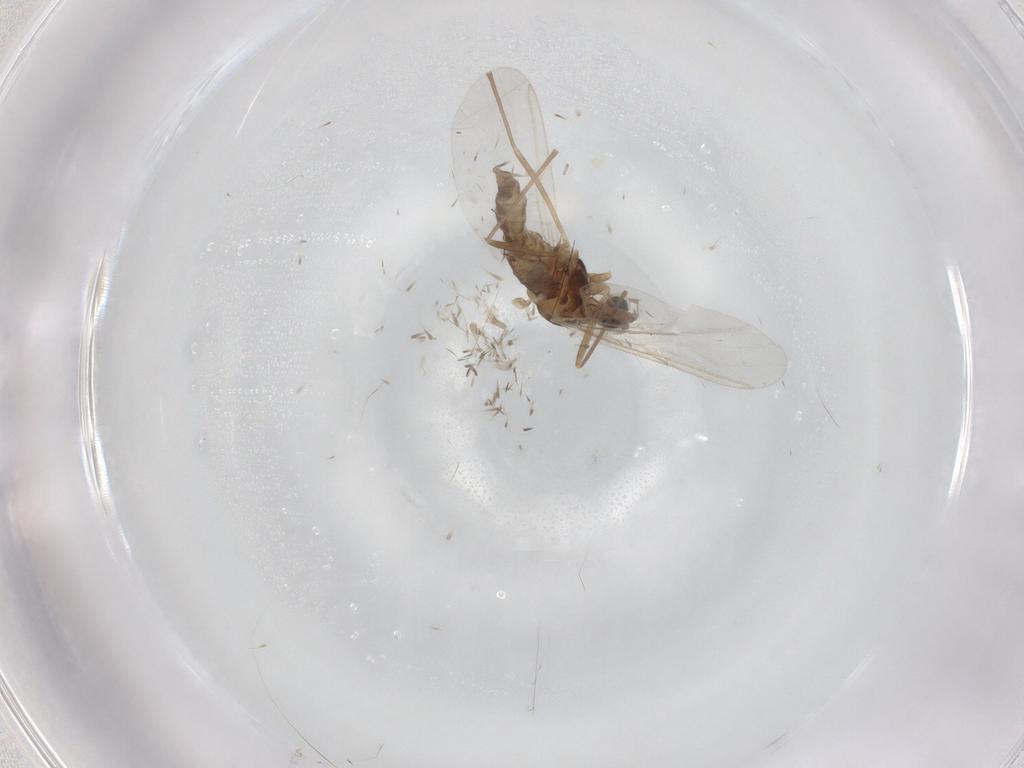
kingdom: Animalia
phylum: Arthropoda
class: Insecta
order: Diptera
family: Cecidomyiidae
